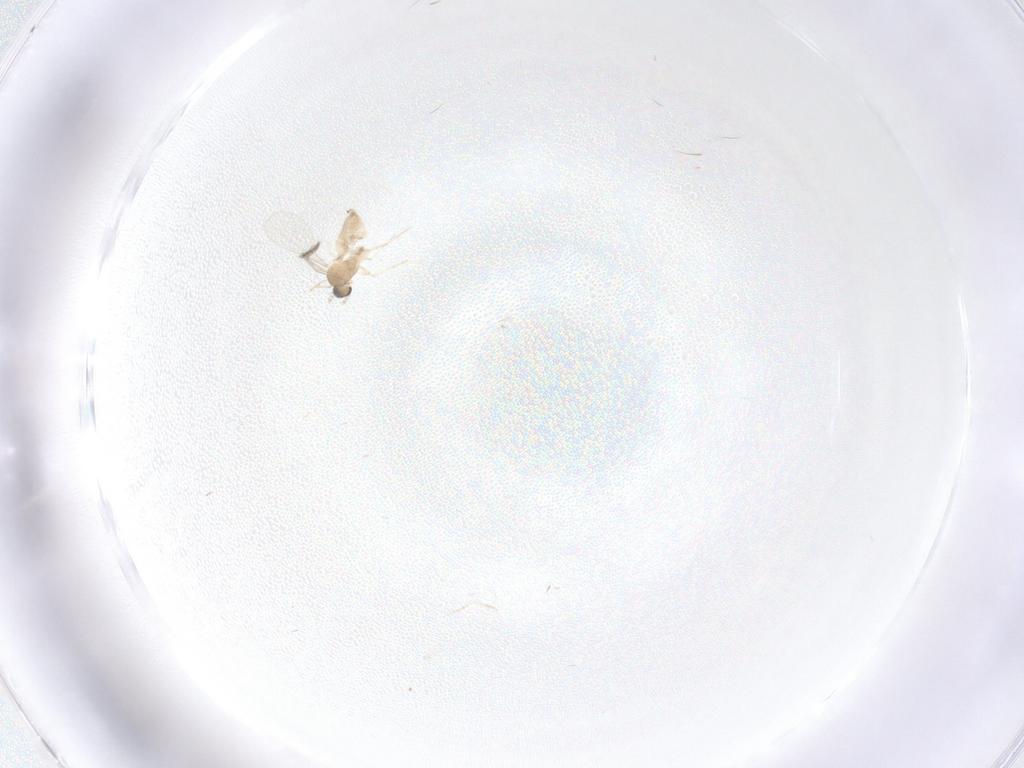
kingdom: Animalia
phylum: Arthropoda
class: Insecta
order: Diptera
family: Cecidomyiidae
